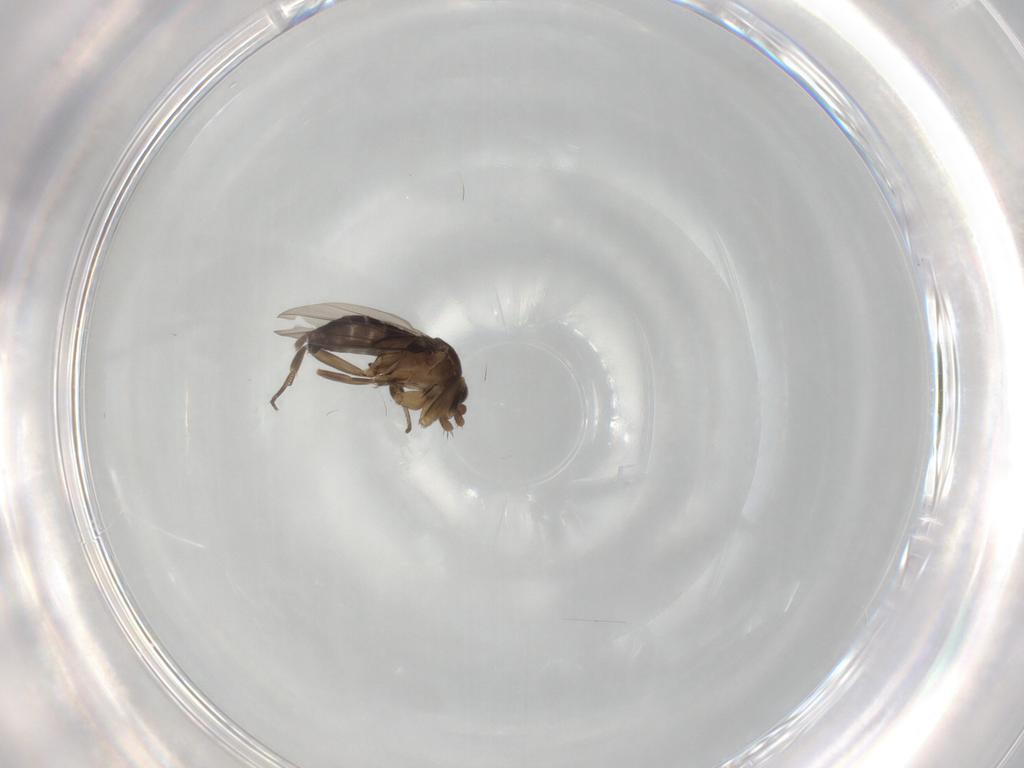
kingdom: Animalia
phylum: Arthropoda
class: Insecta
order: Diptera
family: Phoridae
